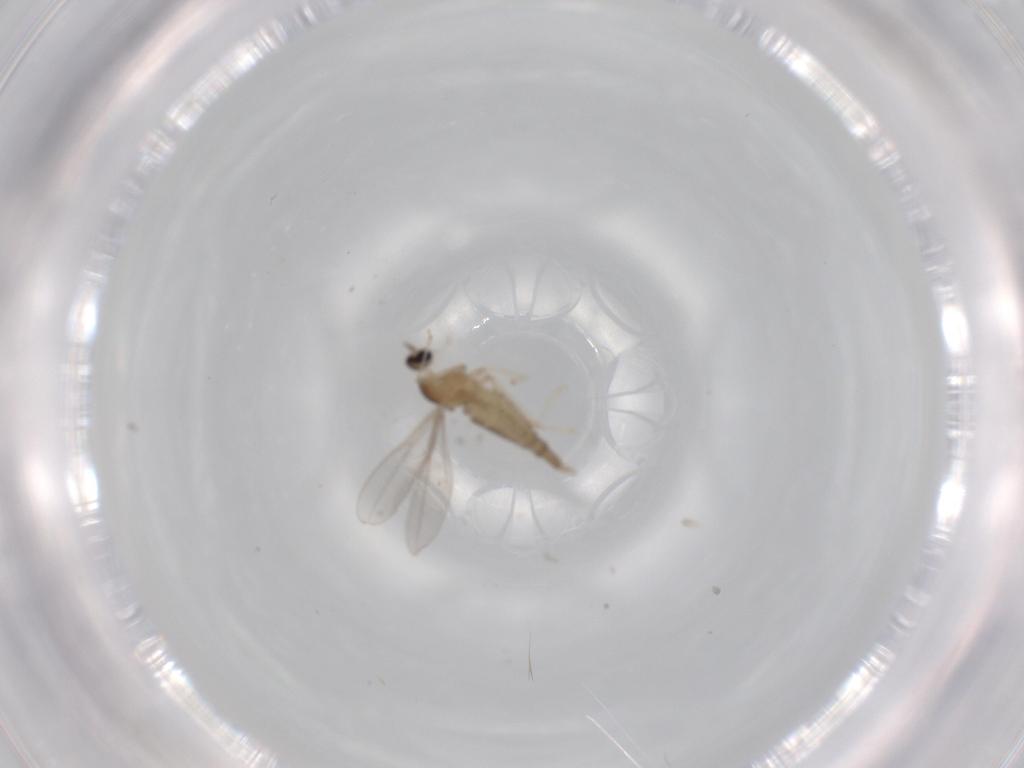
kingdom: Animalia
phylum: Arthropoda
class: Insecta
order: Diptera
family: Cecidomyiidae
